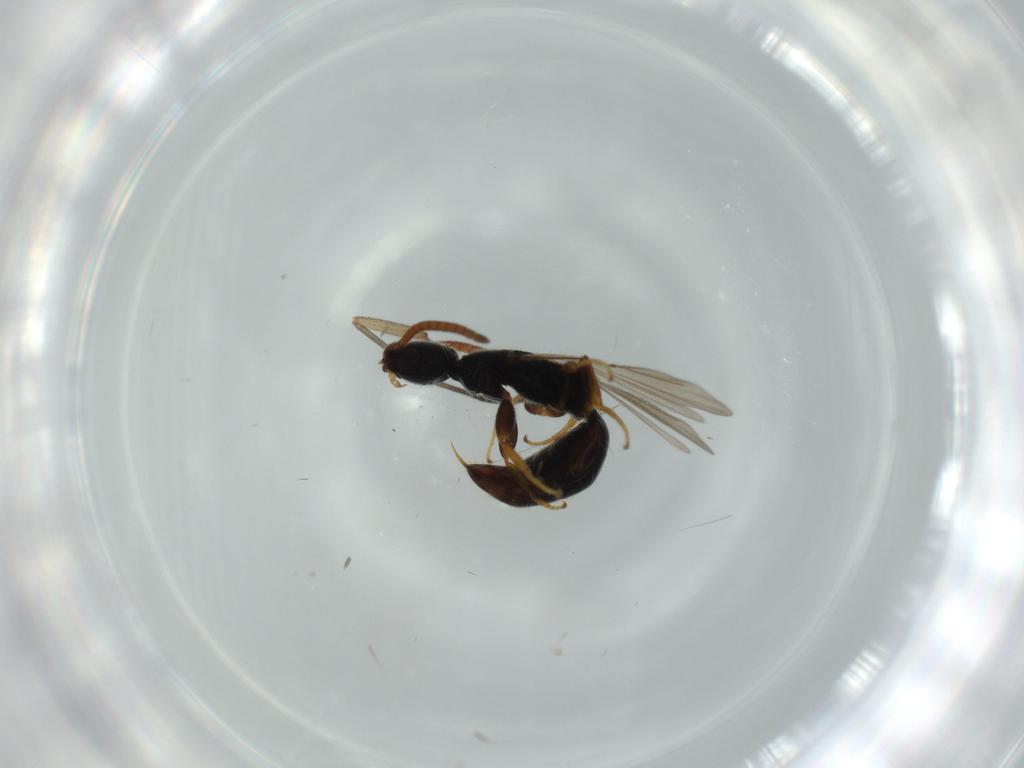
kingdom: Animalia
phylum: Arthropoda
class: Insecta
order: Hymenoptera
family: Bethylidae
